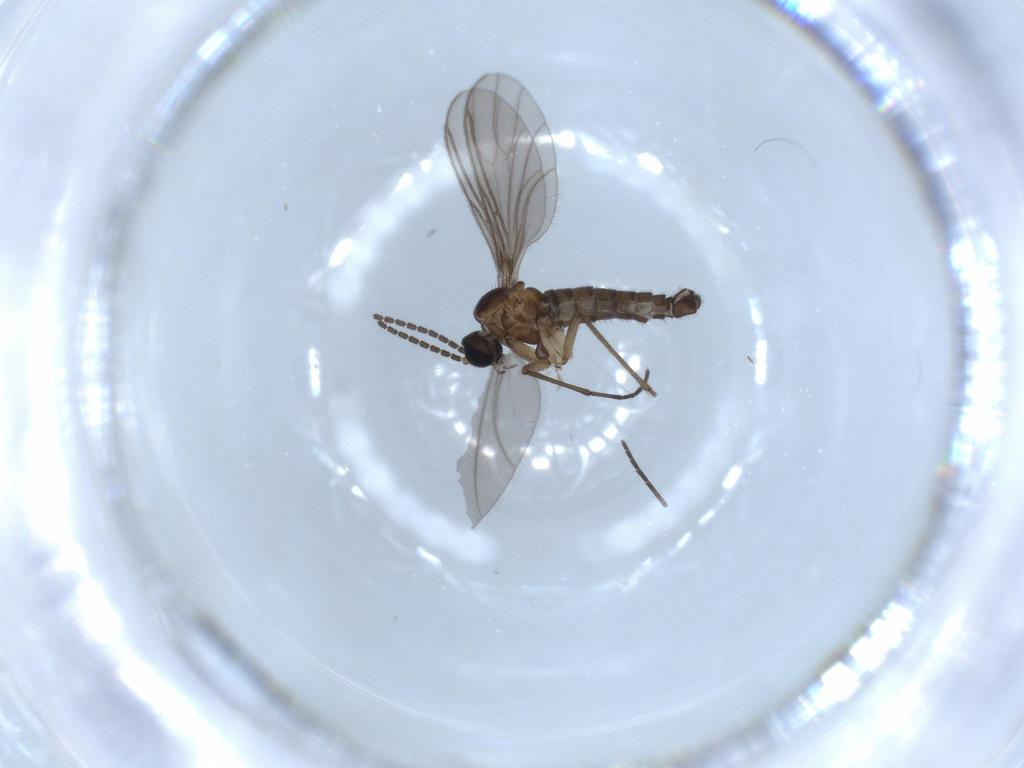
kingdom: Animalia
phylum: Arthropoda
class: Insecta
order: Diptera
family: Sciaridae
